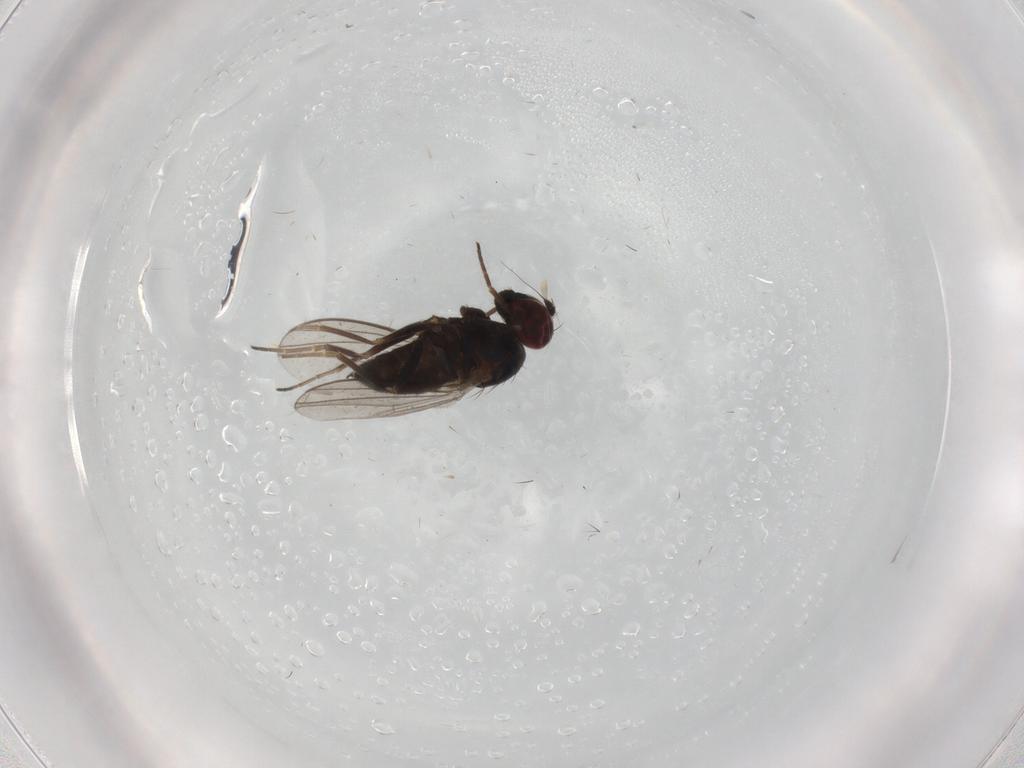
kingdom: Animalia
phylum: Arthropoda
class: Insecta
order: Diptera
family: Dolichopodidae
